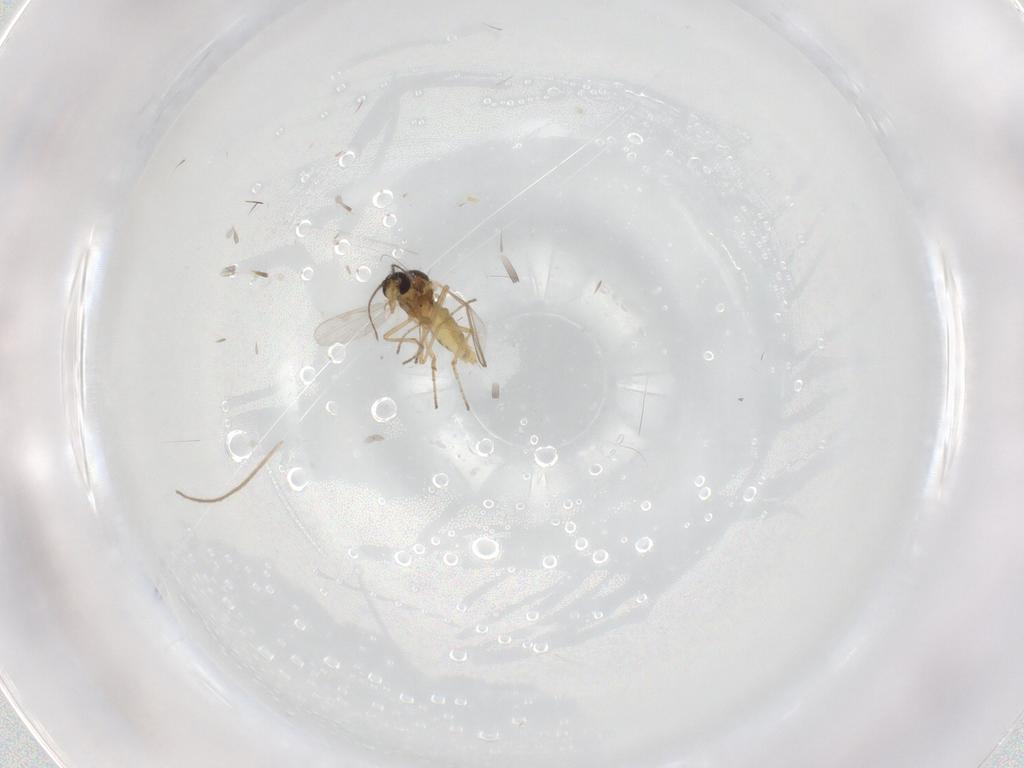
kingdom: Animalia
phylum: Arthropoda
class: Insecta
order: Diptera
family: Ceratopogonidae
